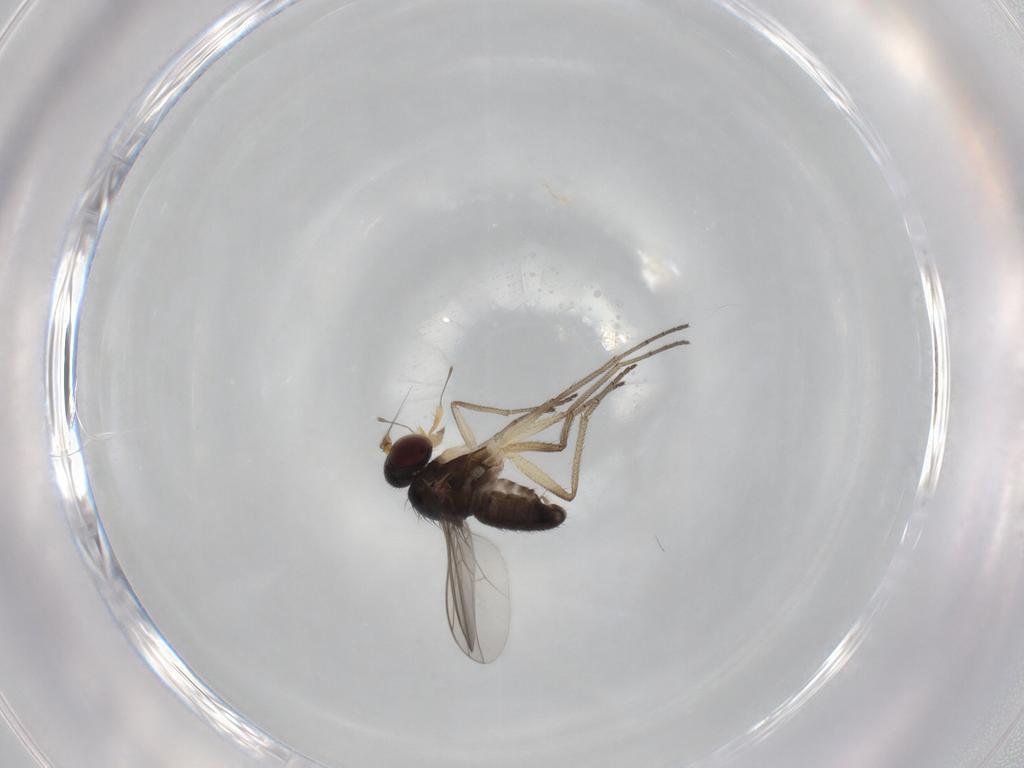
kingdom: Animalia
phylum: Arthropoda
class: Insecta
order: Diptera
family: Dolichopodidae
